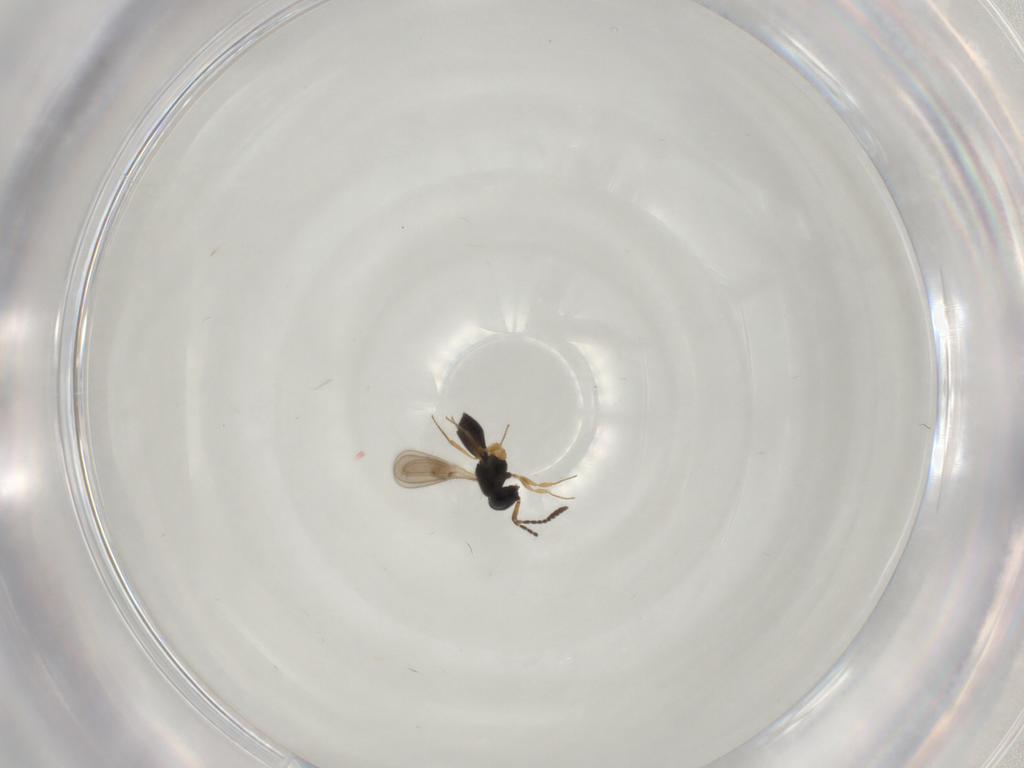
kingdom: Animalia
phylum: Arthropoda
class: Insecta
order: Hymenoptera
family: Scelionidae
